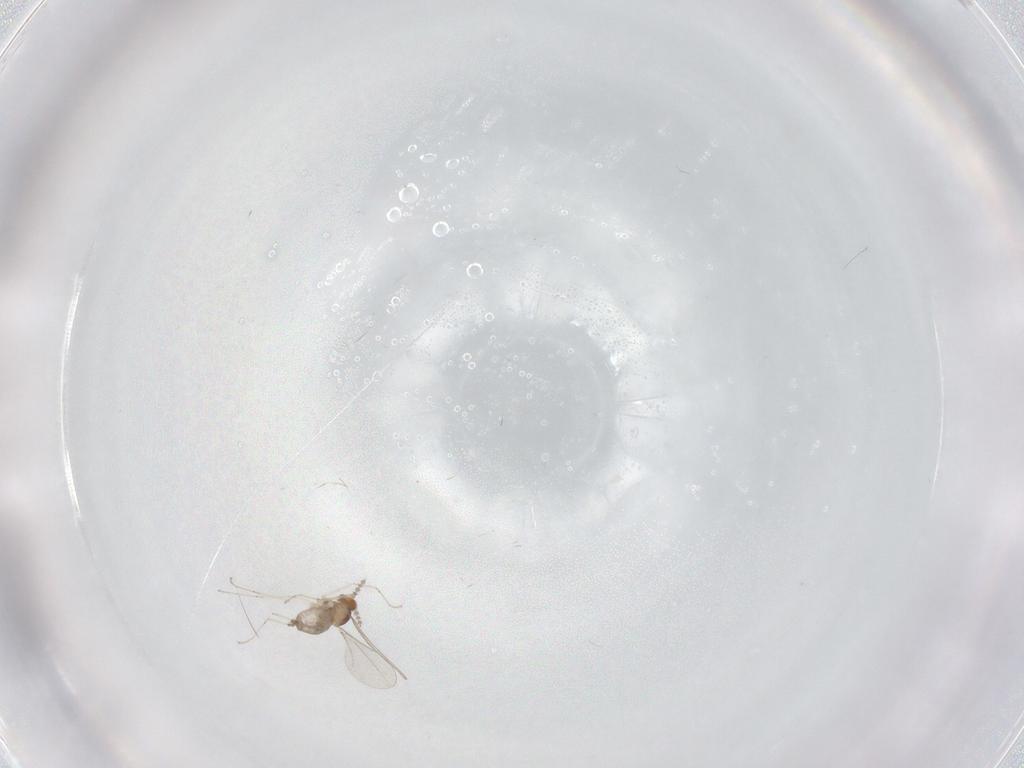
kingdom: Animalia
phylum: Arthropoda
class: Insecta
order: Diptera
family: Cecidomyiidae
